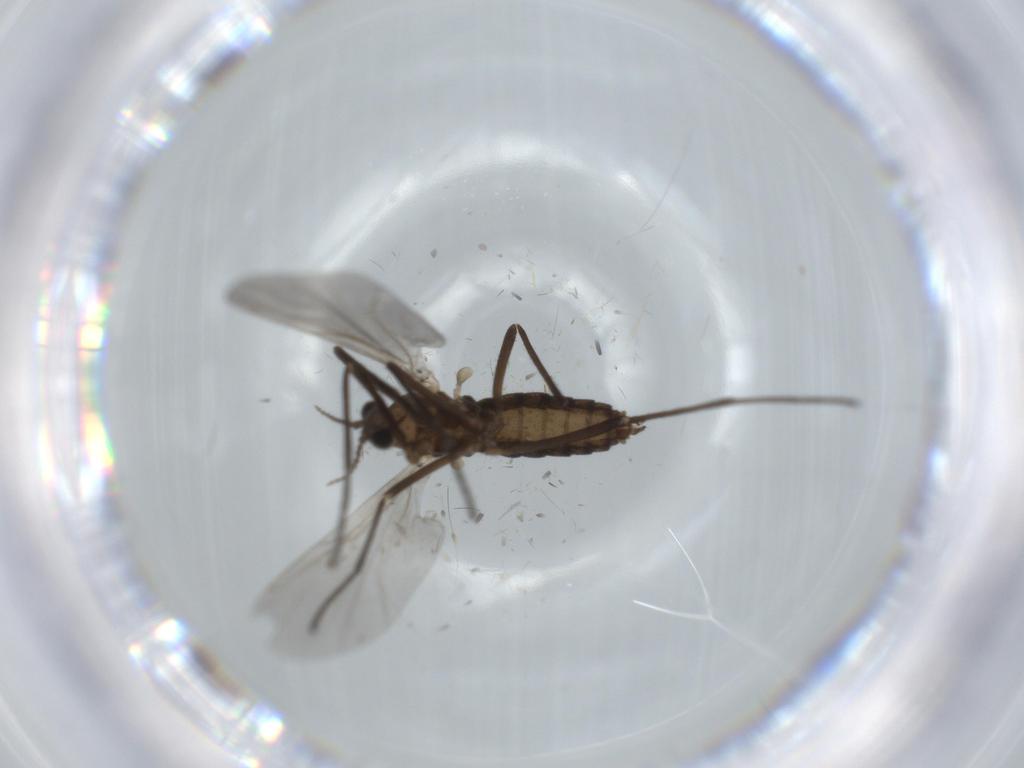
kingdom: Animalia
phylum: Arthropoda
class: Insecta
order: Diptera
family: Cecidomyiidae
